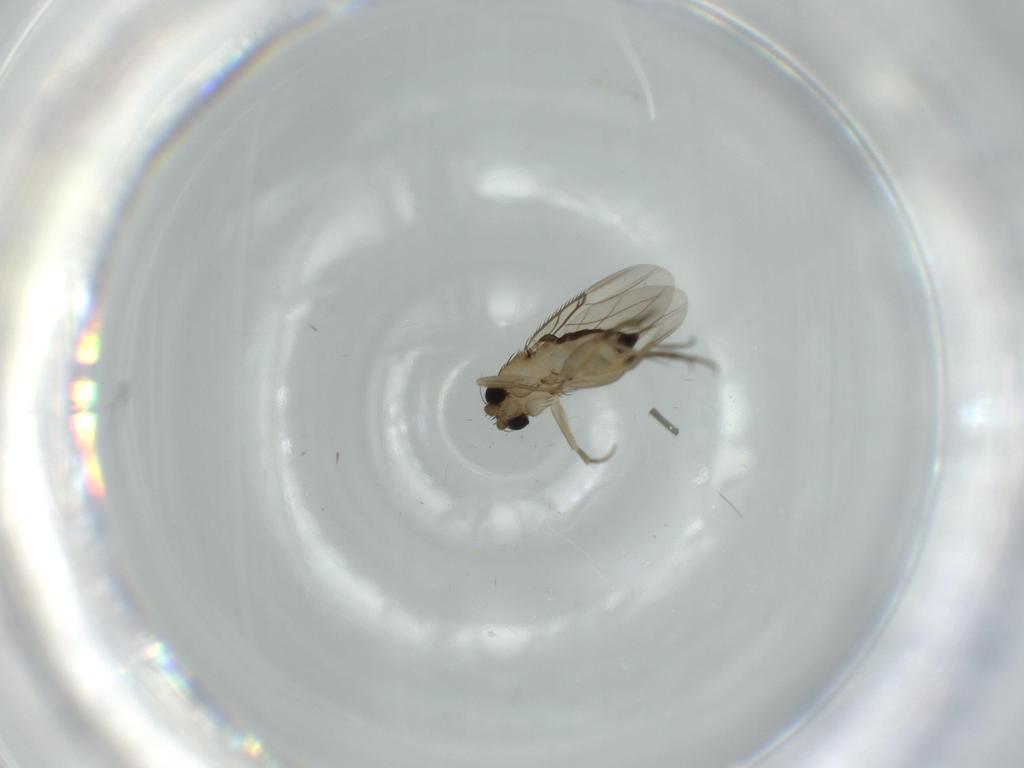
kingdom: Animalia
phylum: Arthropoda
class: Insecta
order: Diptera
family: Phoridae
